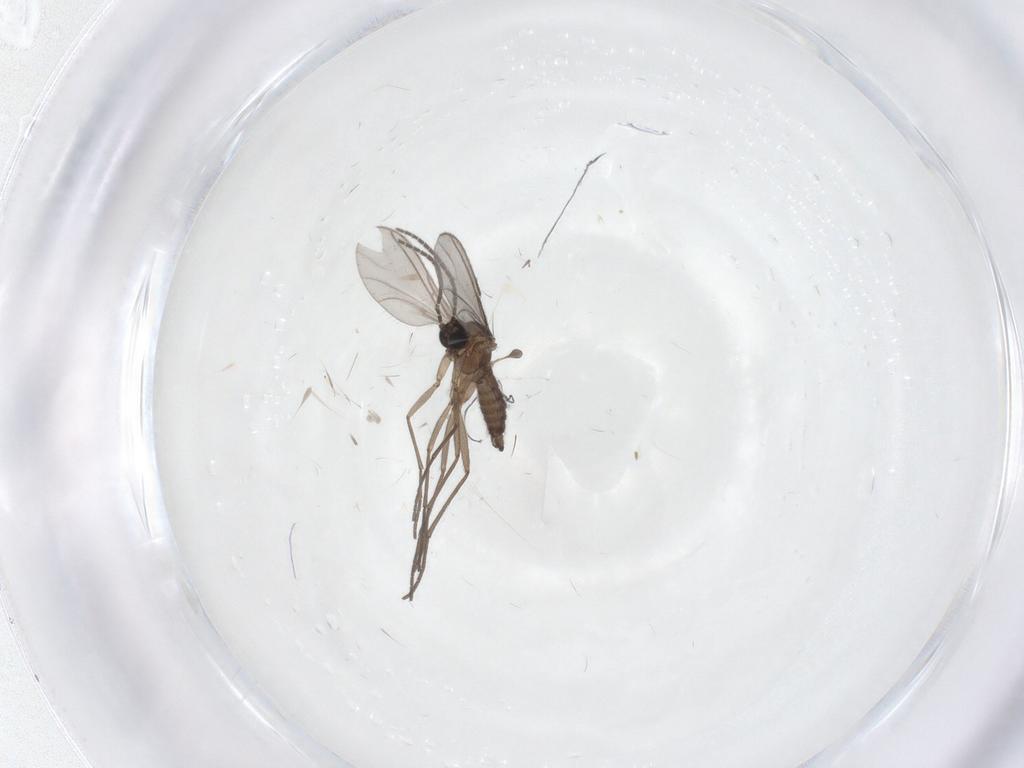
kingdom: Animalia
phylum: Arthropoda
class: Insecta
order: Diptera
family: Sciaridae
